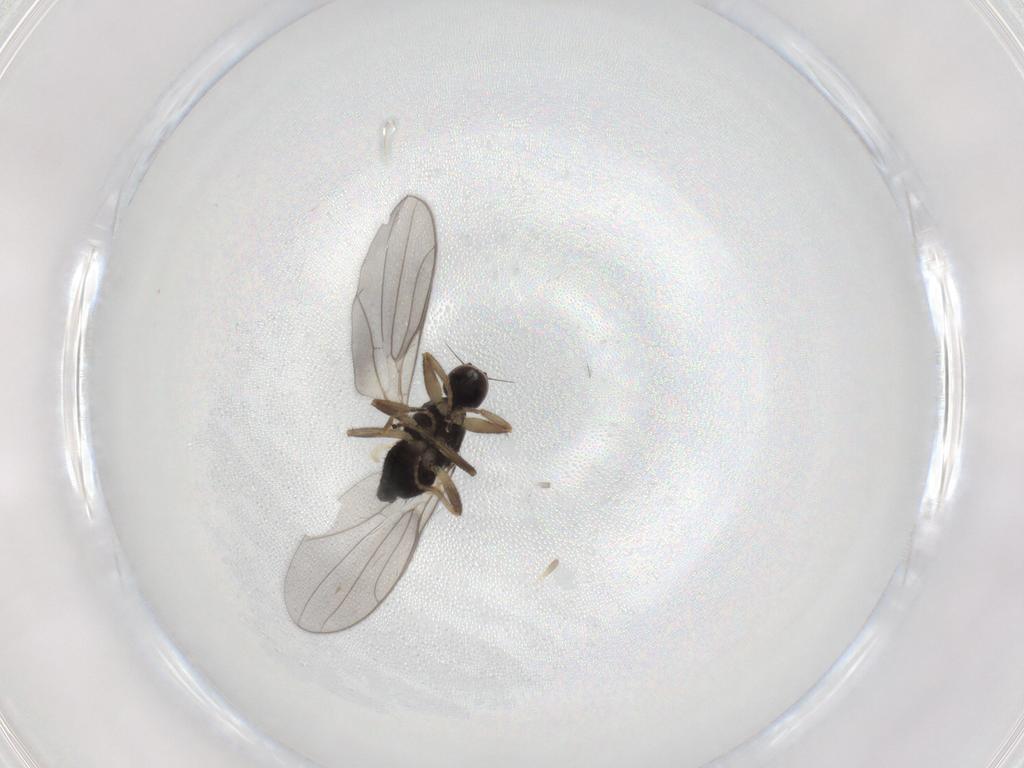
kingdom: Animalia
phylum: Arthropoda
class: Insecta
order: Diptera
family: Hybotidae
